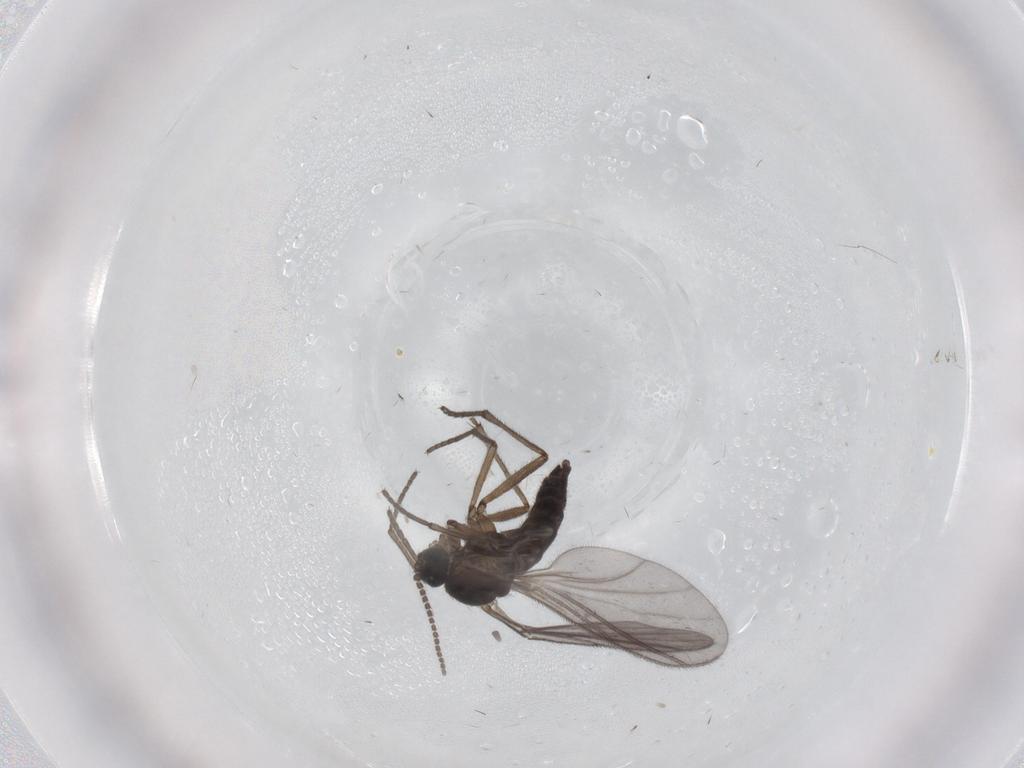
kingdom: Animalia
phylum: Arthropoda
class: Insecta
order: Diptera
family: Sciaridae
